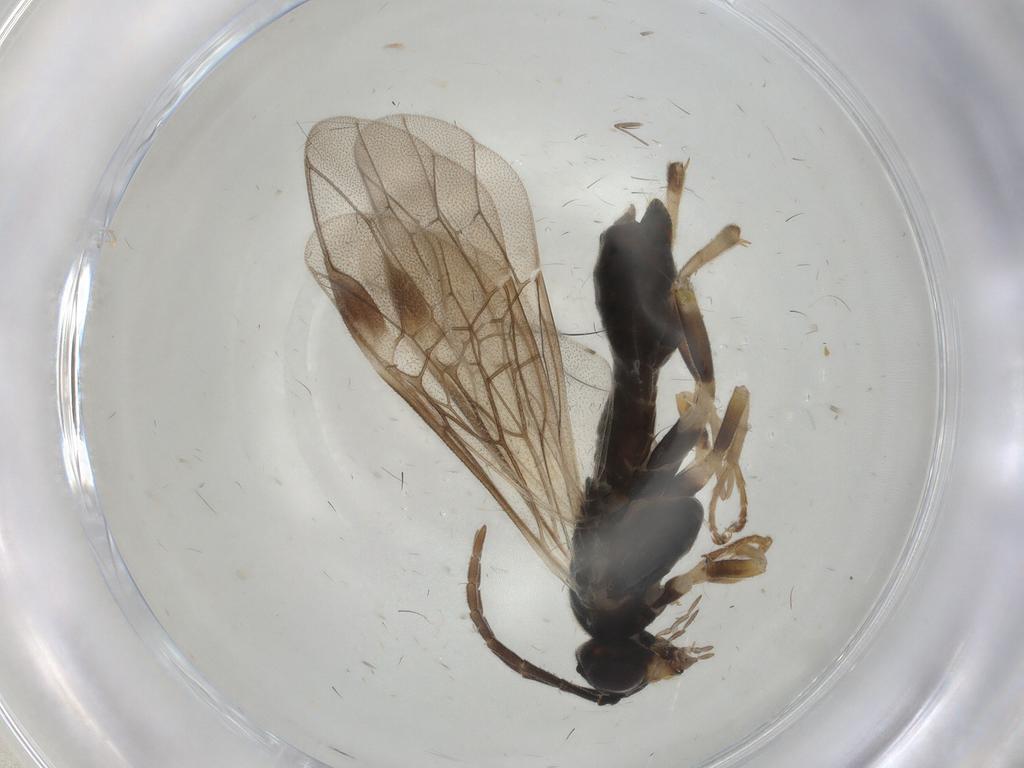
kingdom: Animalia
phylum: Arthropoda
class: Insecta
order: Hymenoptera
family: Tenthredinidae
